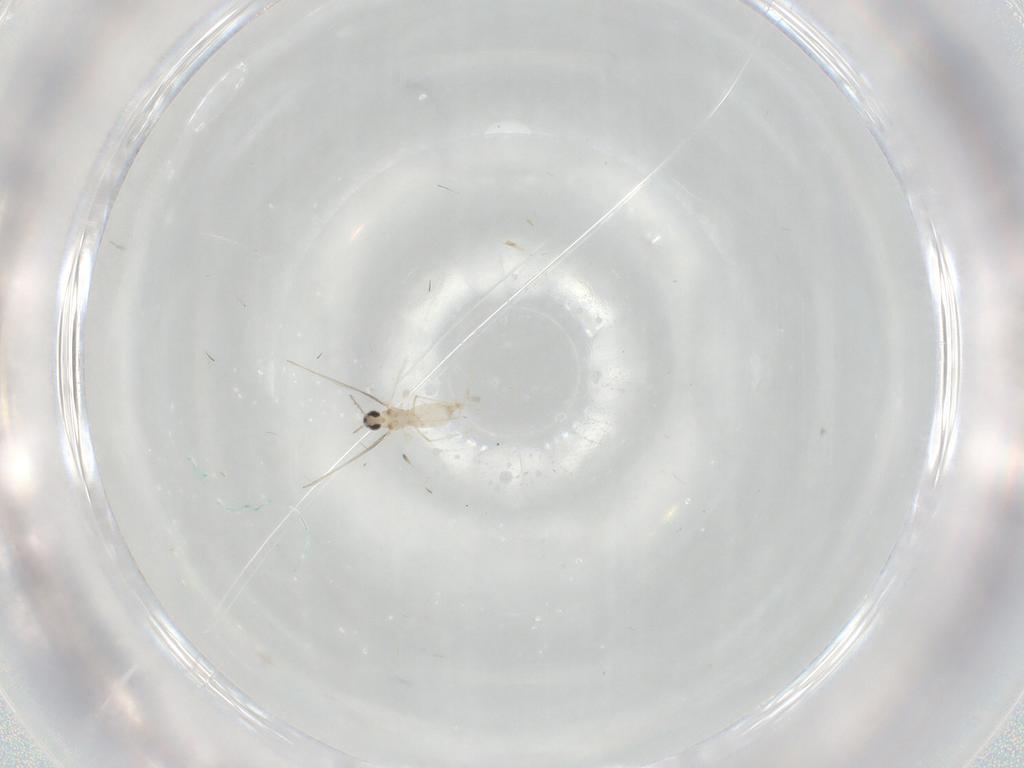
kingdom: Animalia
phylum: Arthropoda
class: Insecta
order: Diptera
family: Cecidomyiidae
